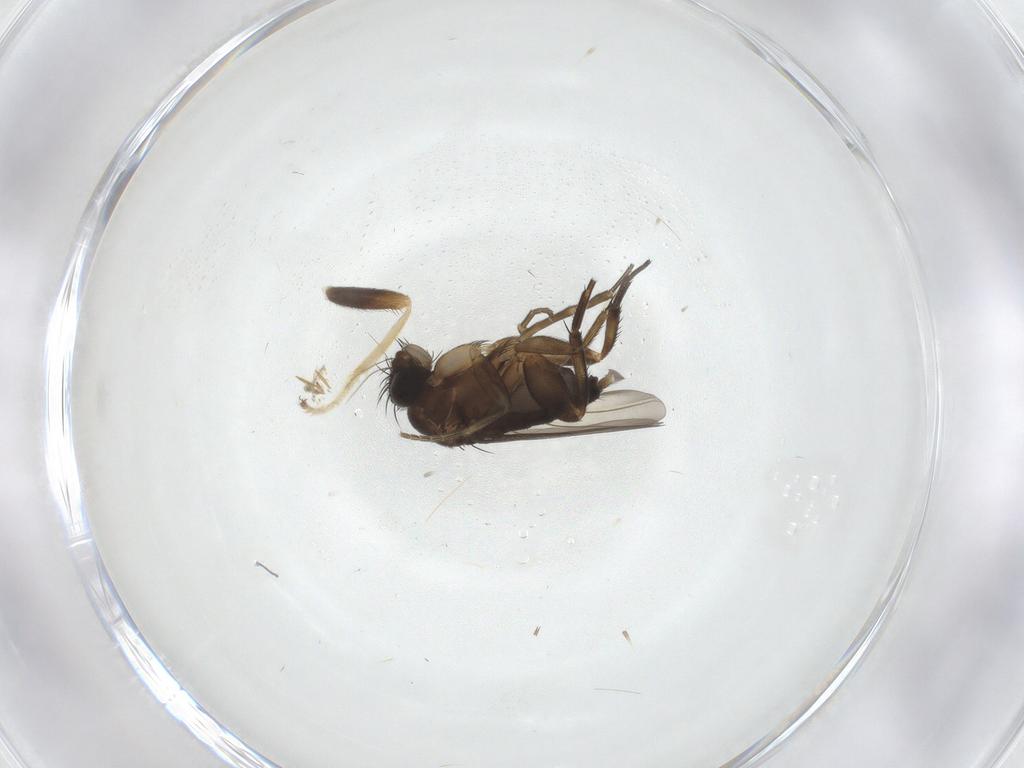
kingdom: Animalia
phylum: Arthropoda
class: Insecta
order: Diptera
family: Phoridae
